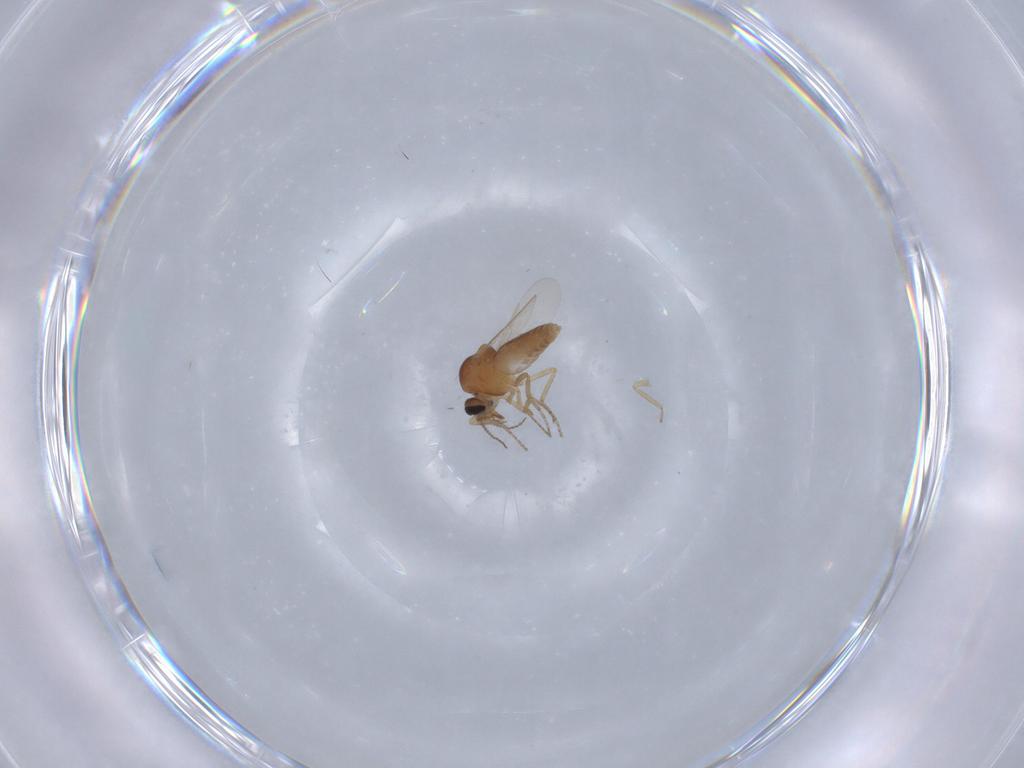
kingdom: Animalia
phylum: Arthropoda
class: Insecta
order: Diptera
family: Ceratopogonidae
